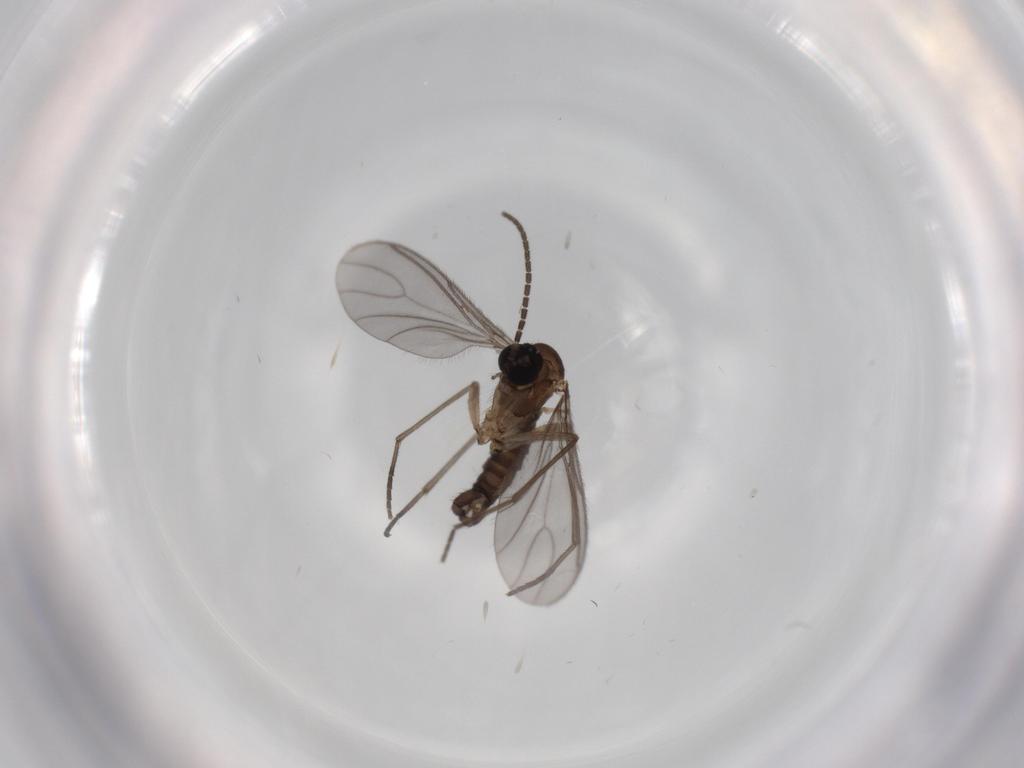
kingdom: Animalia
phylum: Arthropoda
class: Insecta
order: Diptera
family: Sciaridae
